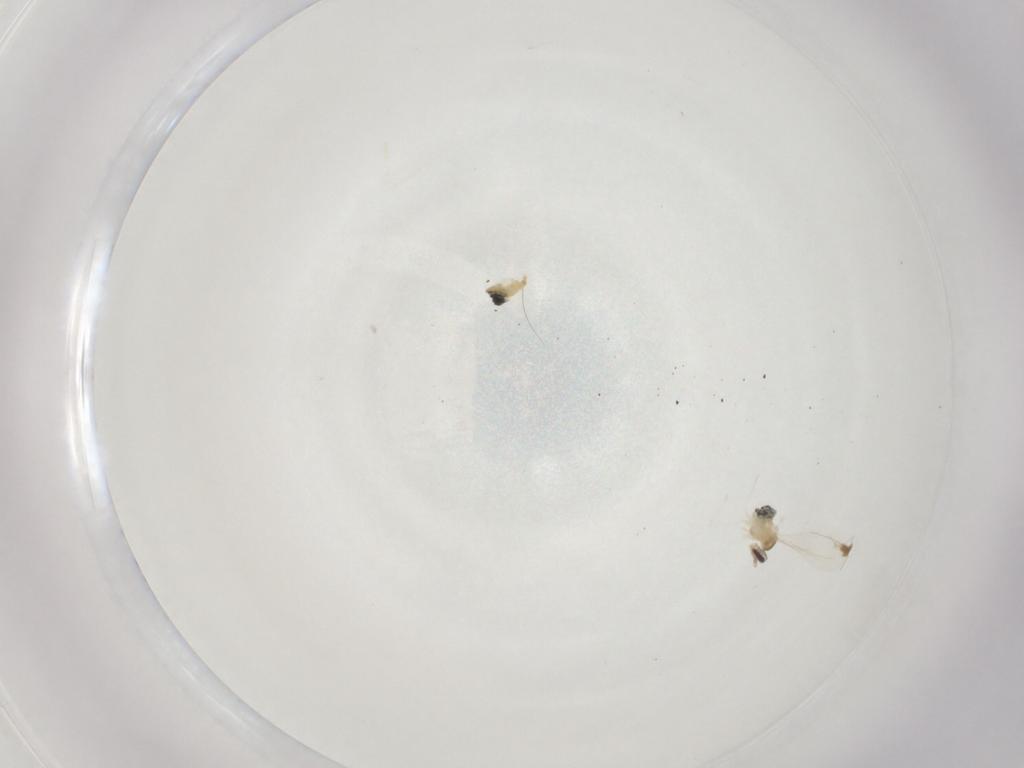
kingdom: Animalia
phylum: Arthropoda
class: Insecta
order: Diptera
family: Cecidomyiidae
